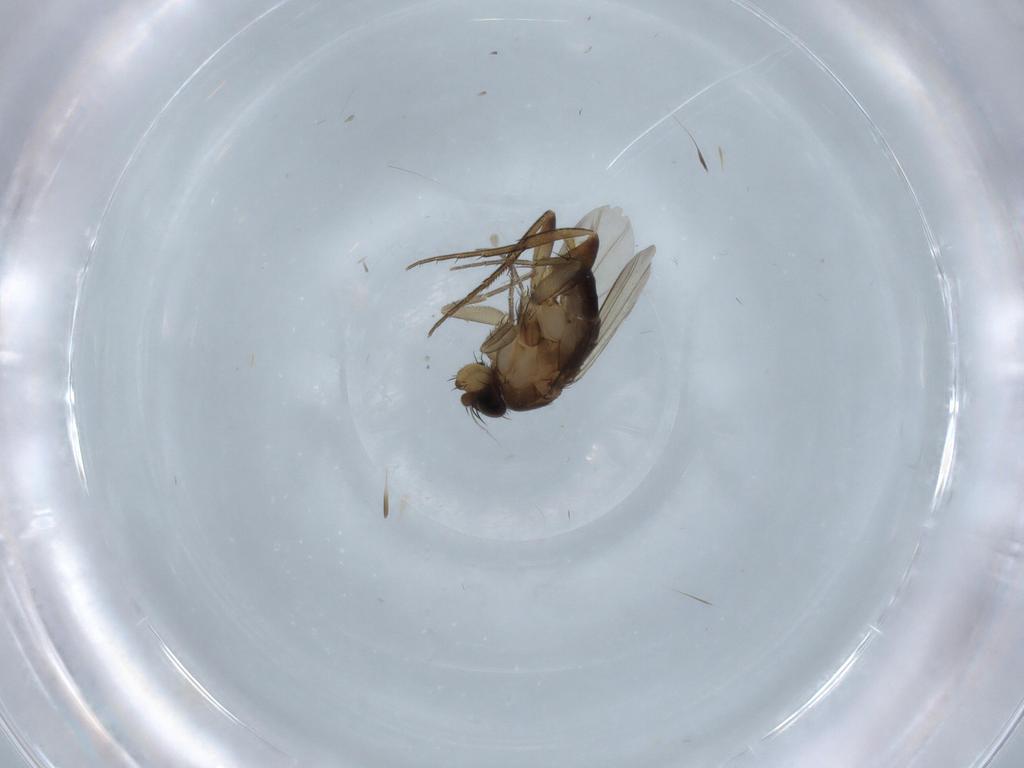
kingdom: Animalia
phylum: Arthropoda
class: Insecta
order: Diptera
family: Phoridae
